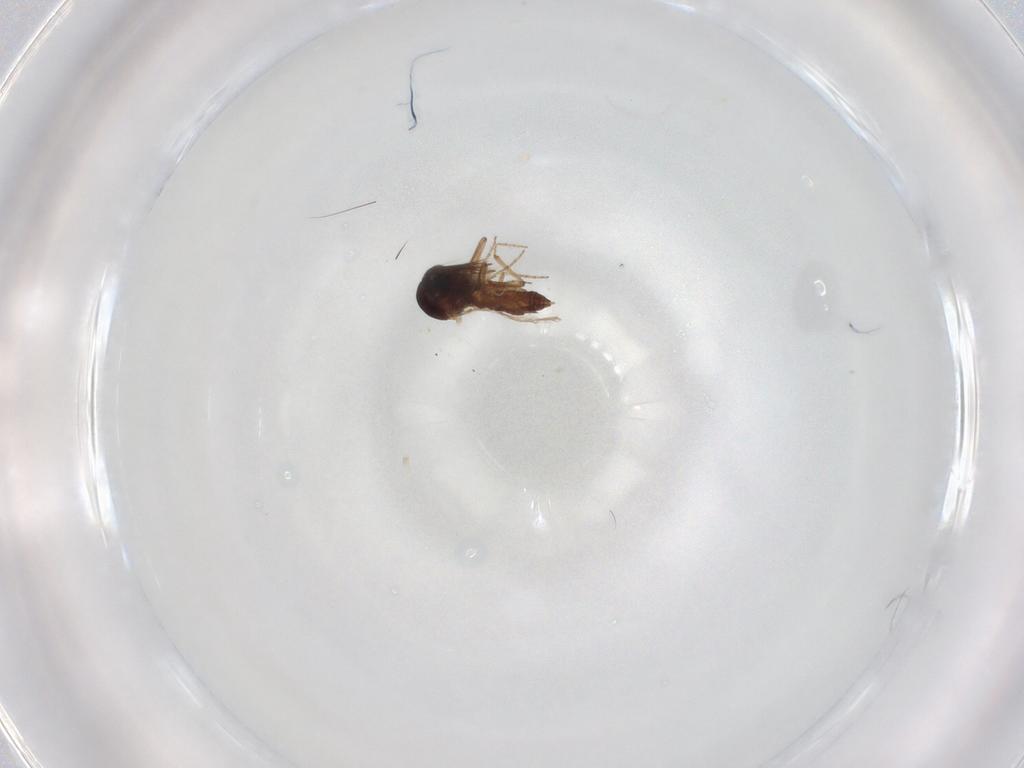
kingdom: Animalia
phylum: Arthropoda
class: Insecta
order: Diptera
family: Ceratopogonidae
